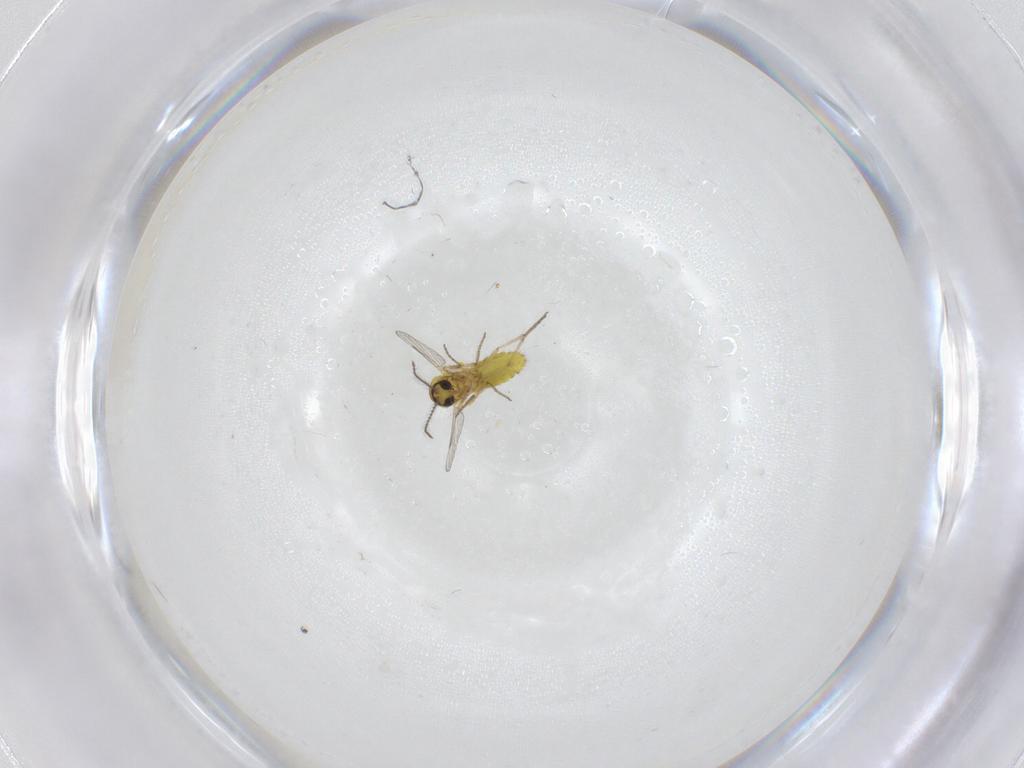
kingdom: Animalia
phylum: Arthropoda
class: Insecta
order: Diptera
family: Ceratopogonidae
